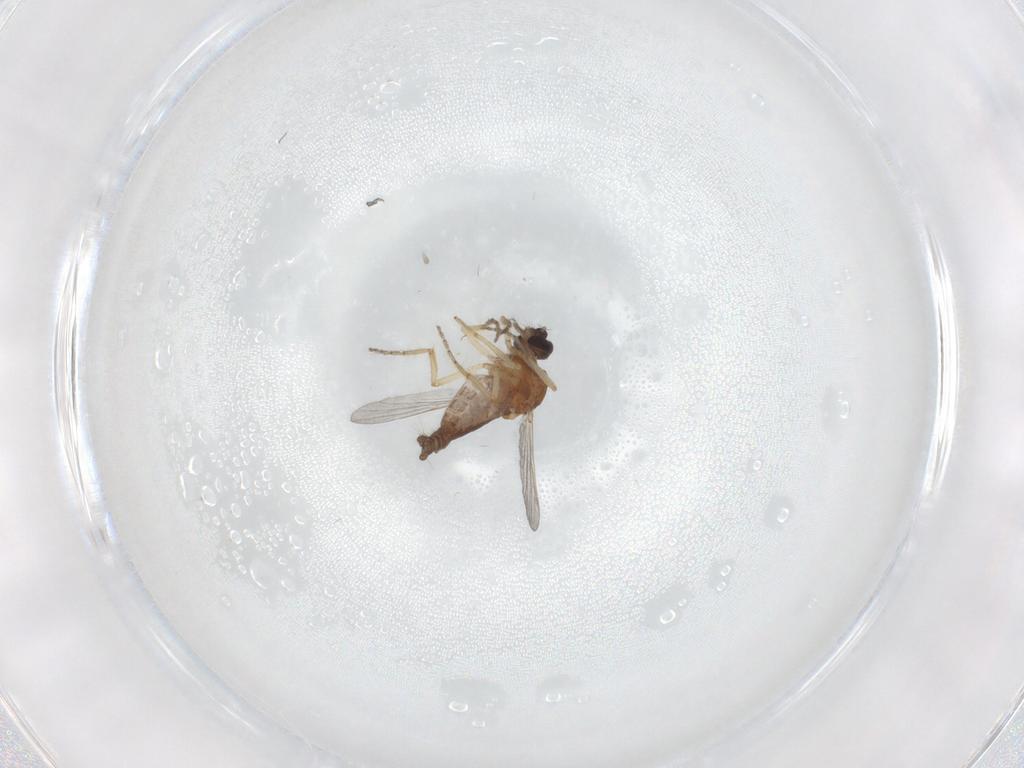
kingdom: Animalia
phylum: Arthropoda
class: Insecta
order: Diptera
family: Ceratopogonidae
